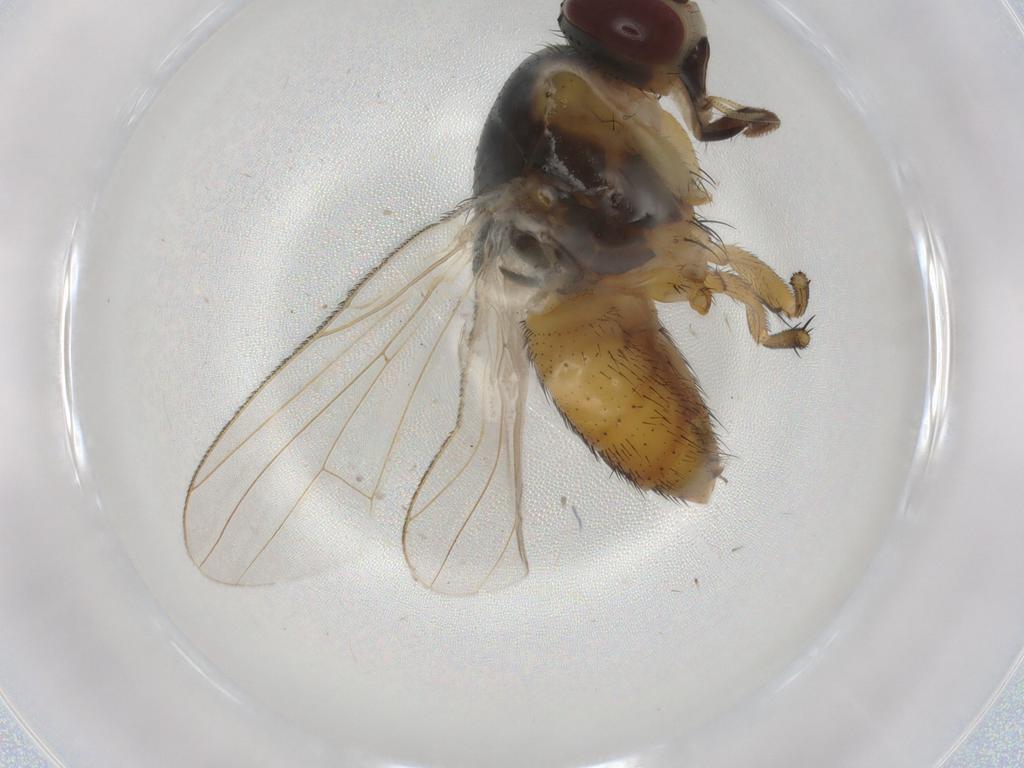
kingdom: Animalia
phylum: Arthropoda
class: Insecta
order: Diptera
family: Muscidae
